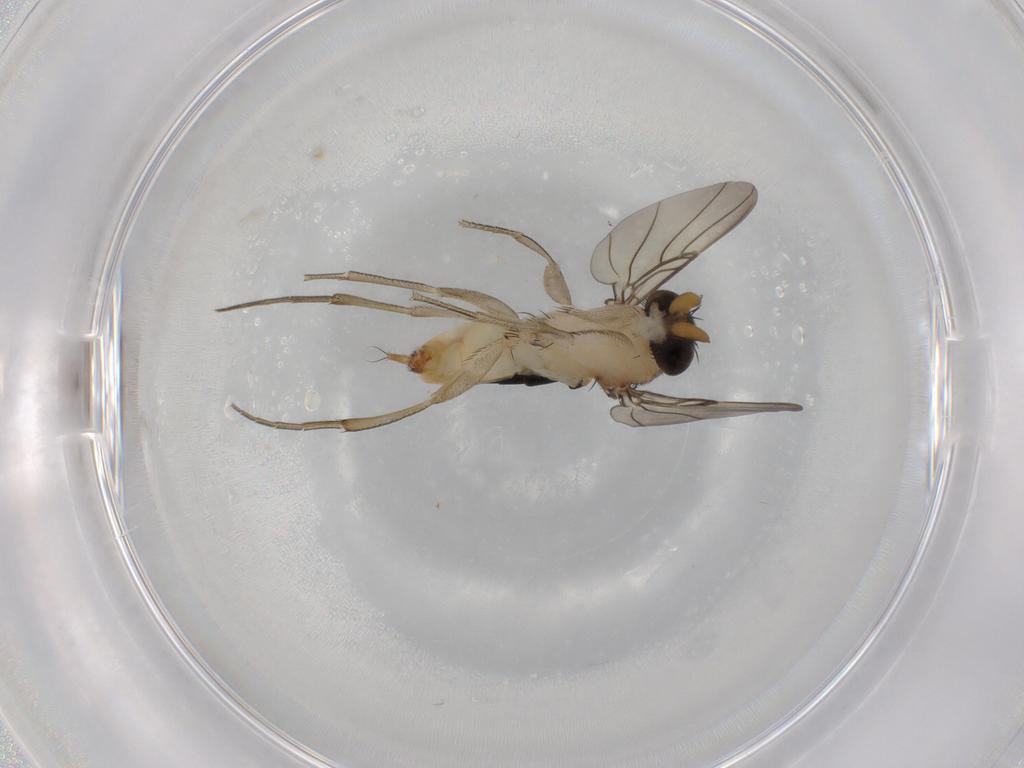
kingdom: Animalia
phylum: Arthropoda
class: Insecta
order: Diptera
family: Phoridae
